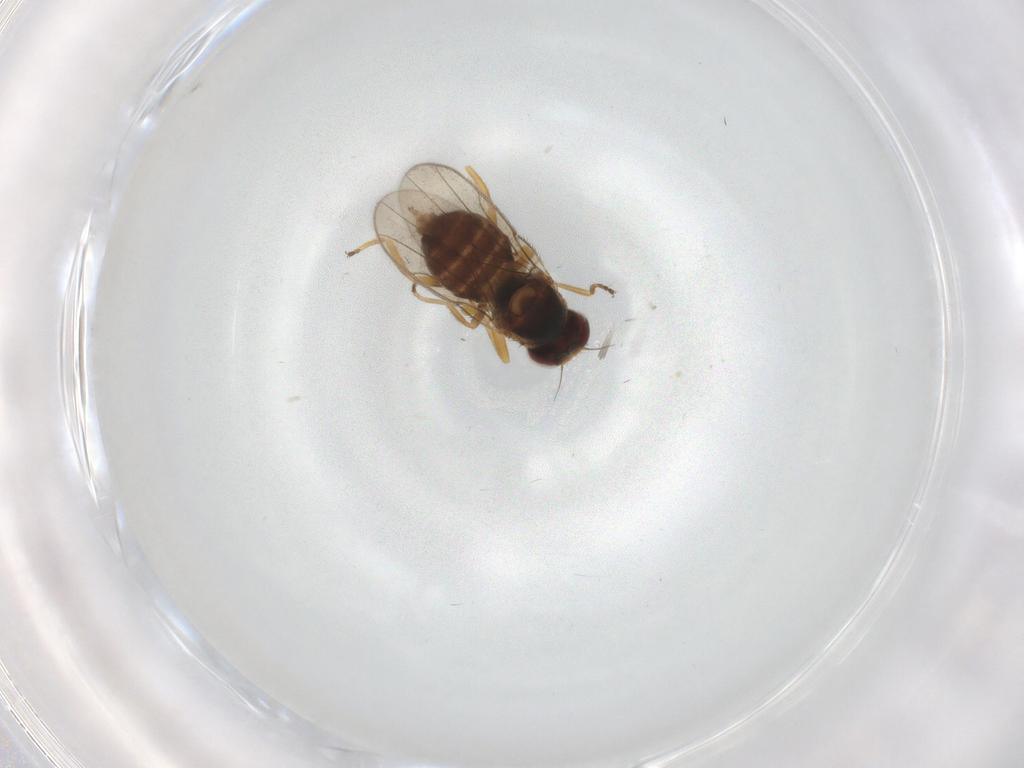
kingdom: Animalia
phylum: Arthropoda
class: Insecta
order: Diptera
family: Chloropidae
